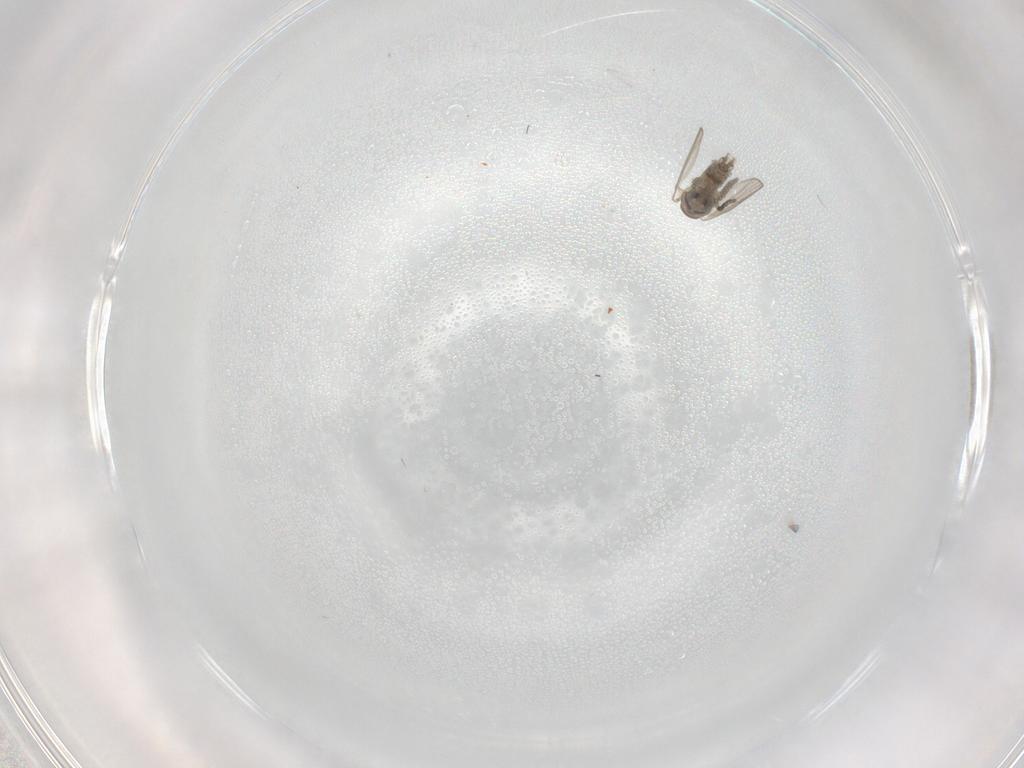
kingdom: Animalia
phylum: Arthropoda
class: Insecta
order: Diptera
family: Psychodidae
